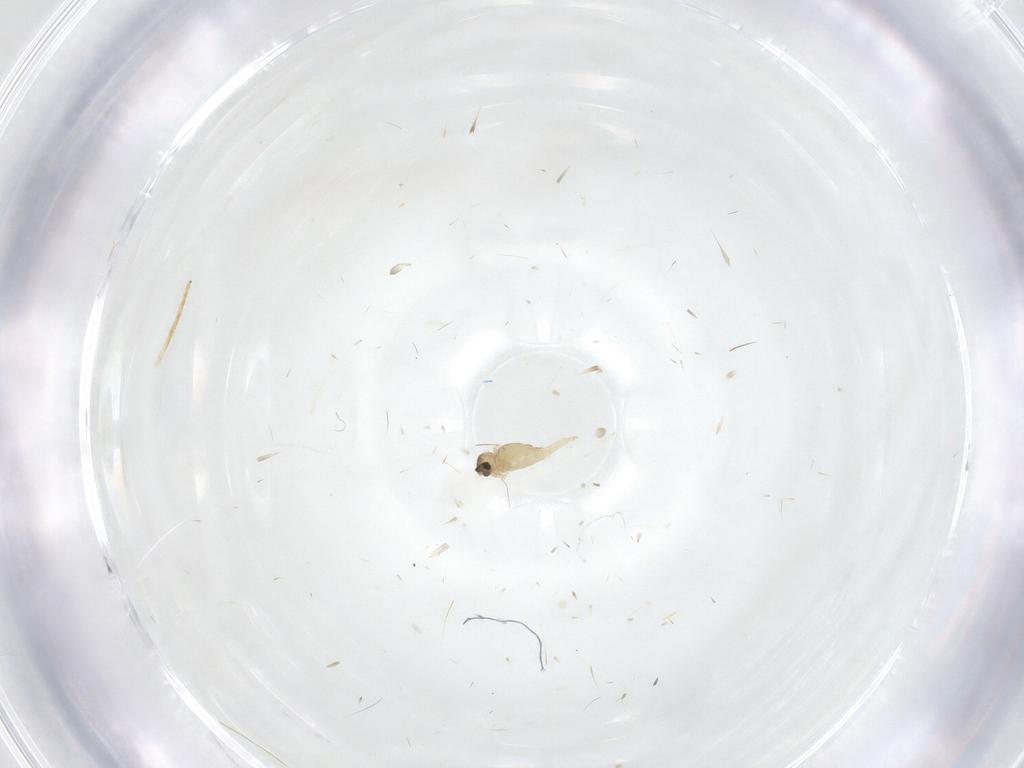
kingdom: Animalia
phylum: Arthropoda
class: Insecta
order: Diptera
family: Cecidomyiidae
